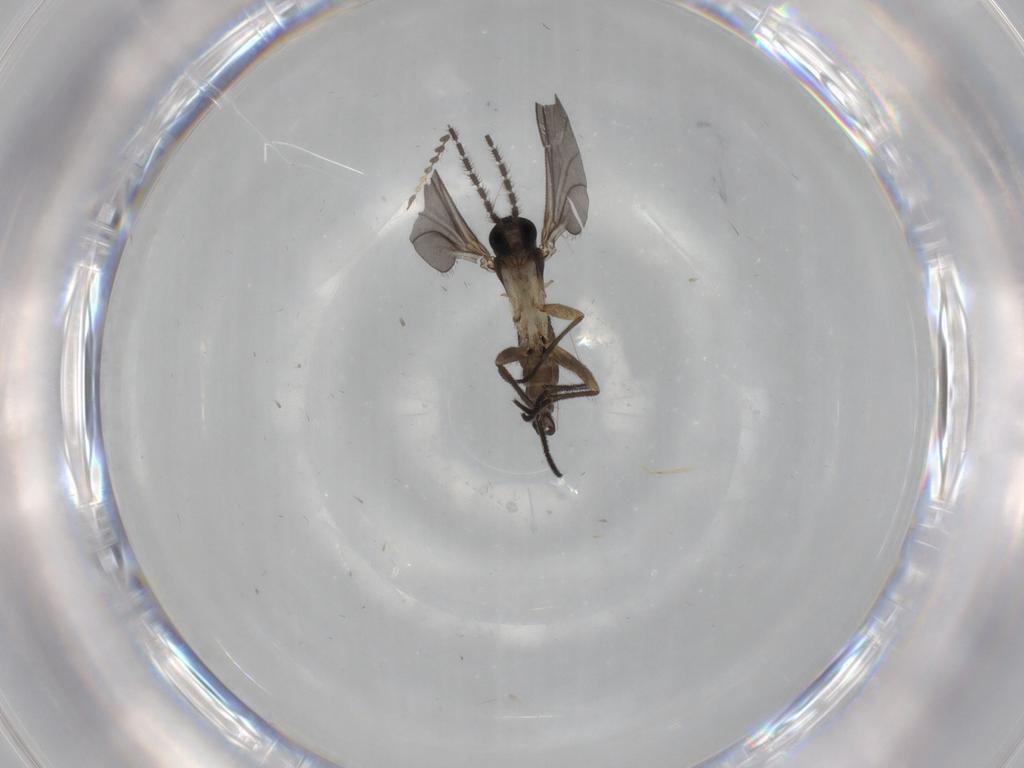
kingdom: Animalia
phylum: Arthropoda
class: Insecta
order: Diptera
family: Sciaridae
